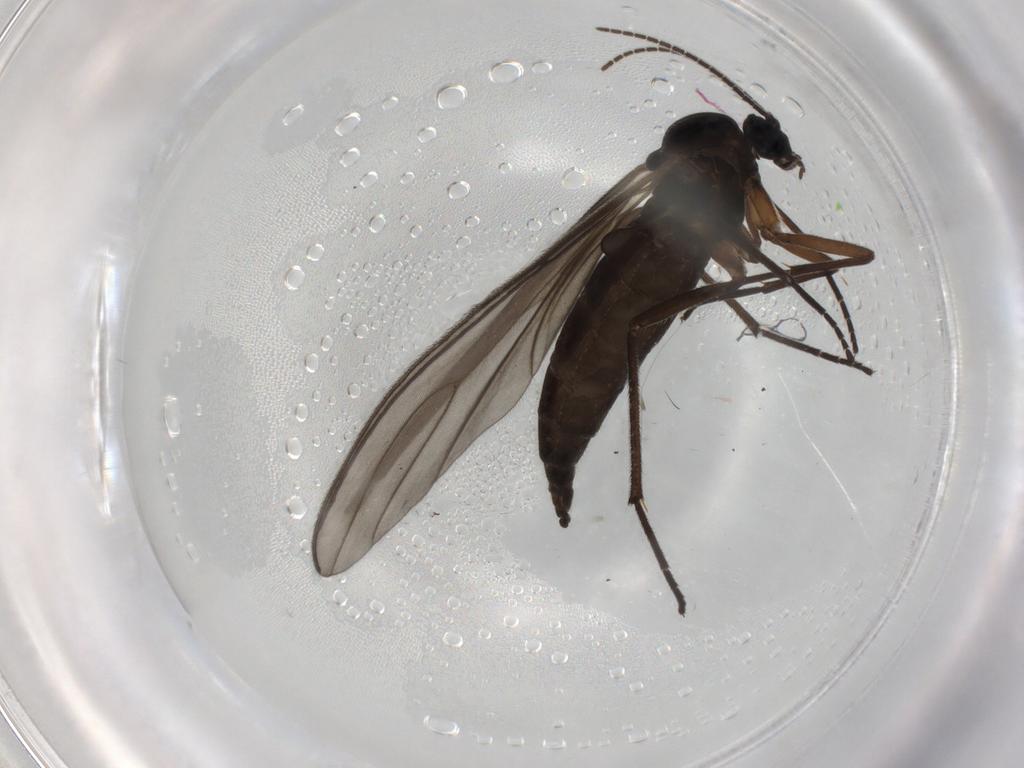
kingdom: Animalia
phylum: Arthropoda
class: Insecta
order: Diptera
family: Sciaridae
